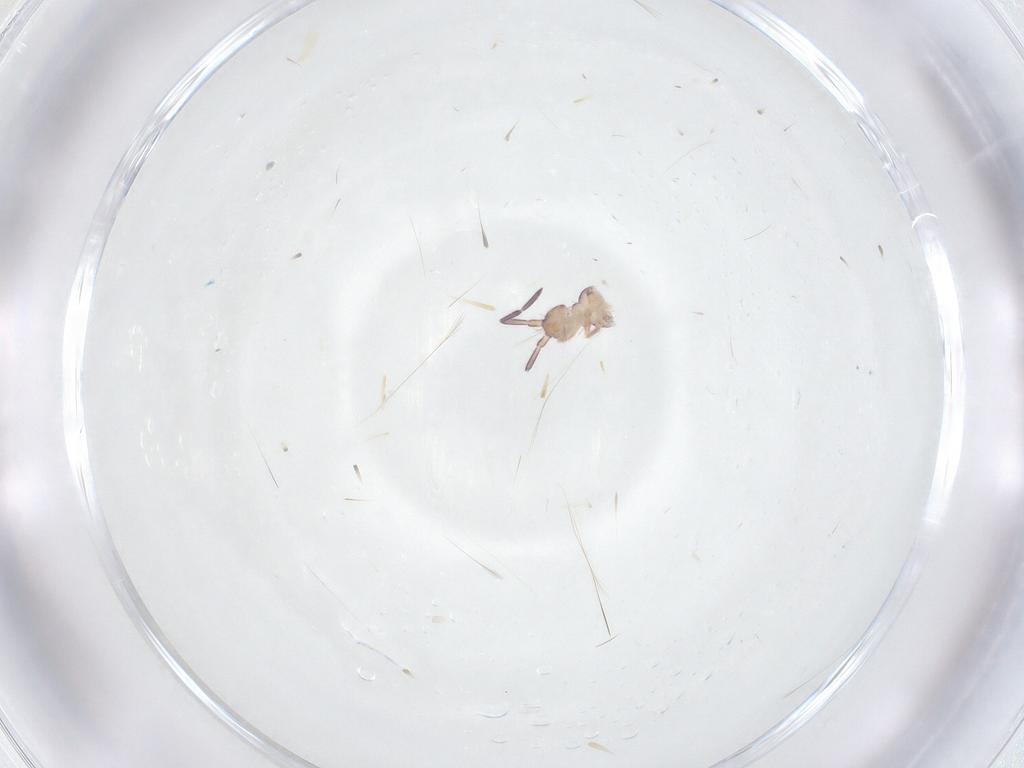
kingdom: Animalia
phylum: Arthropoda
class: Collembola
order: Entomobryomorpha
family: Entomobryidae
